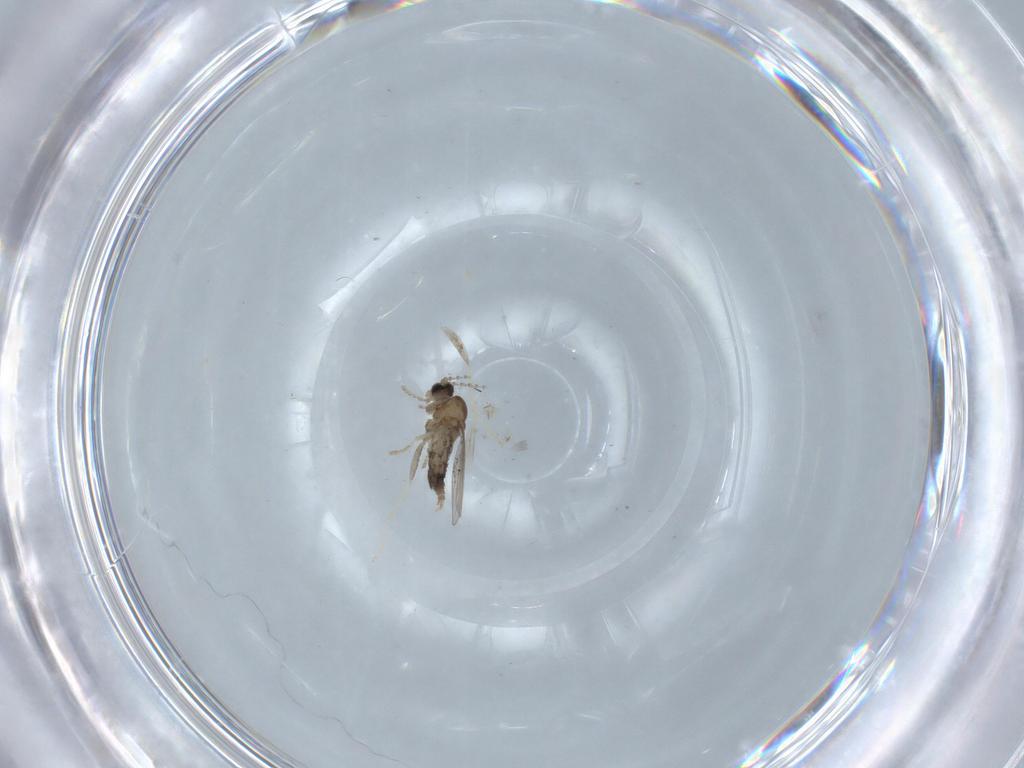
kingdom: Animalia
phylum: Arthropoda
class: Insecta
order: Diptera
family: Cecidomyiidae
